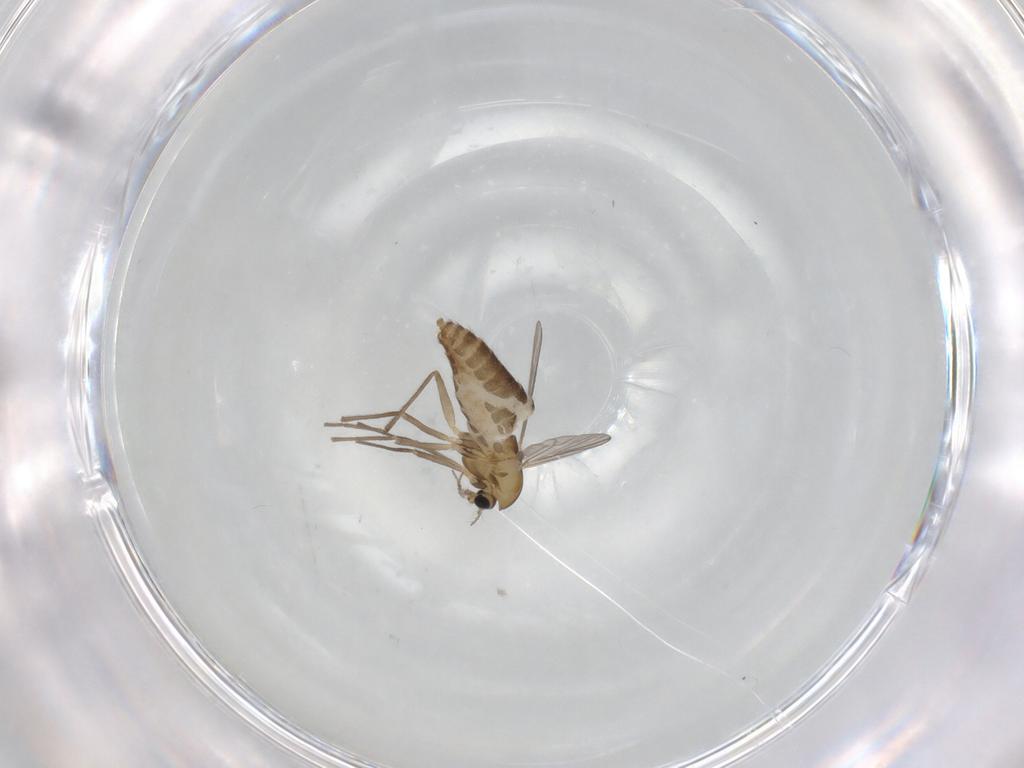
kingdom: Animalia
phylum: Arthropoda
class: Insecta
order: Diptera
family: Chironomidae
